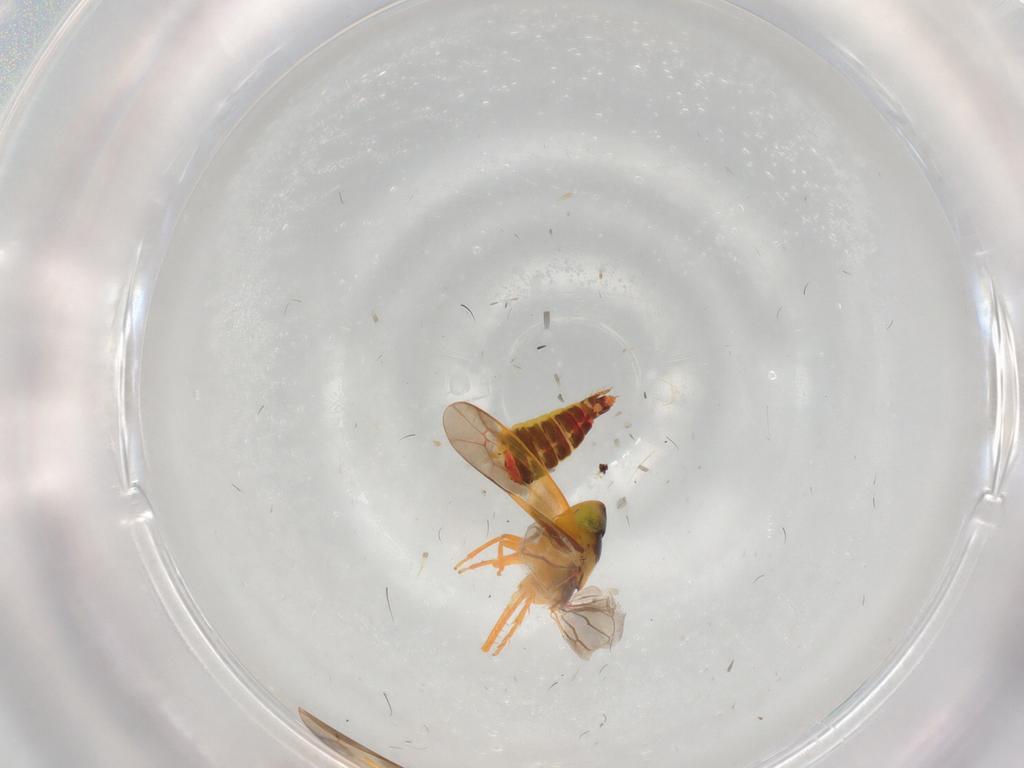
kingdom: Animalia
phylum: Arthropoda
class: Insecta
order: Hemiptera
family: Cicadellidae
